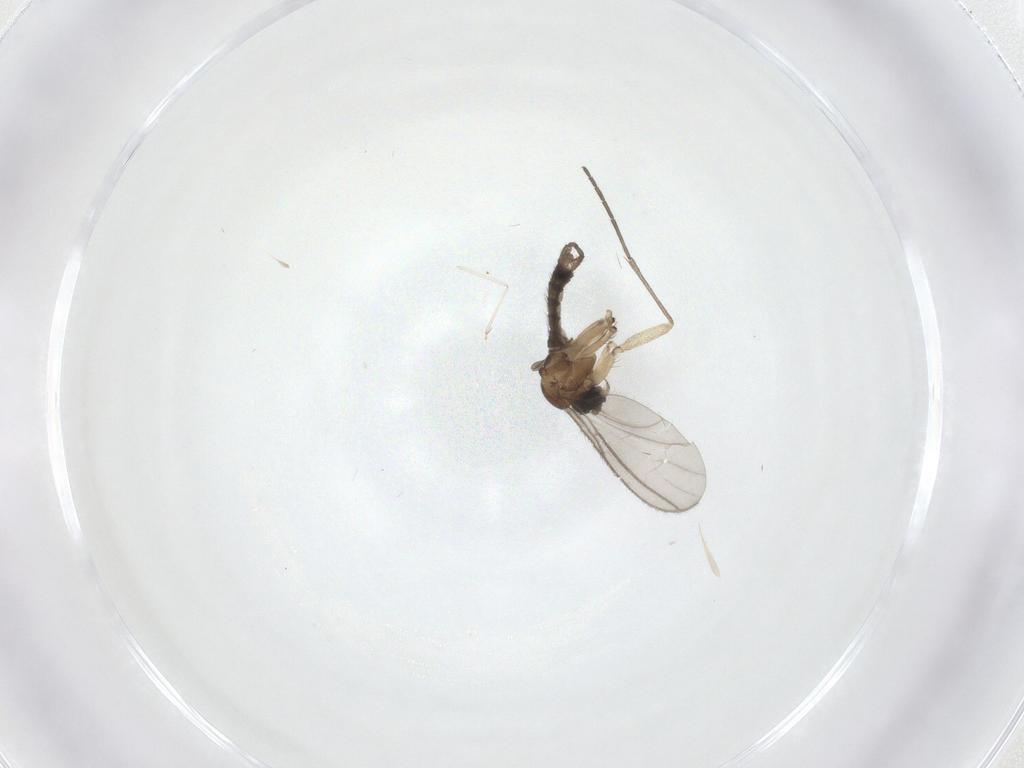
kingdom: Animalia
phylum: Arthropoda
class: Insecta
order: Diptera
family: Sciaridae
